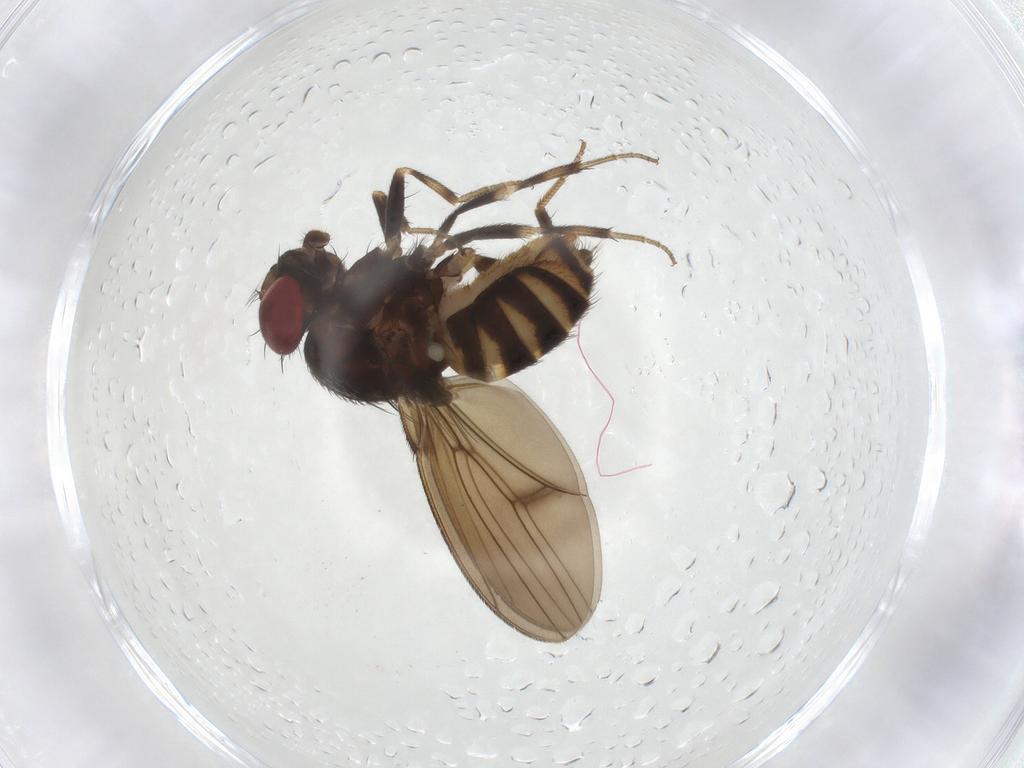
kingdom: Animalia
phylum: Arthropoda
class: Insecta
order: Diptera
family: Drosophilidae
